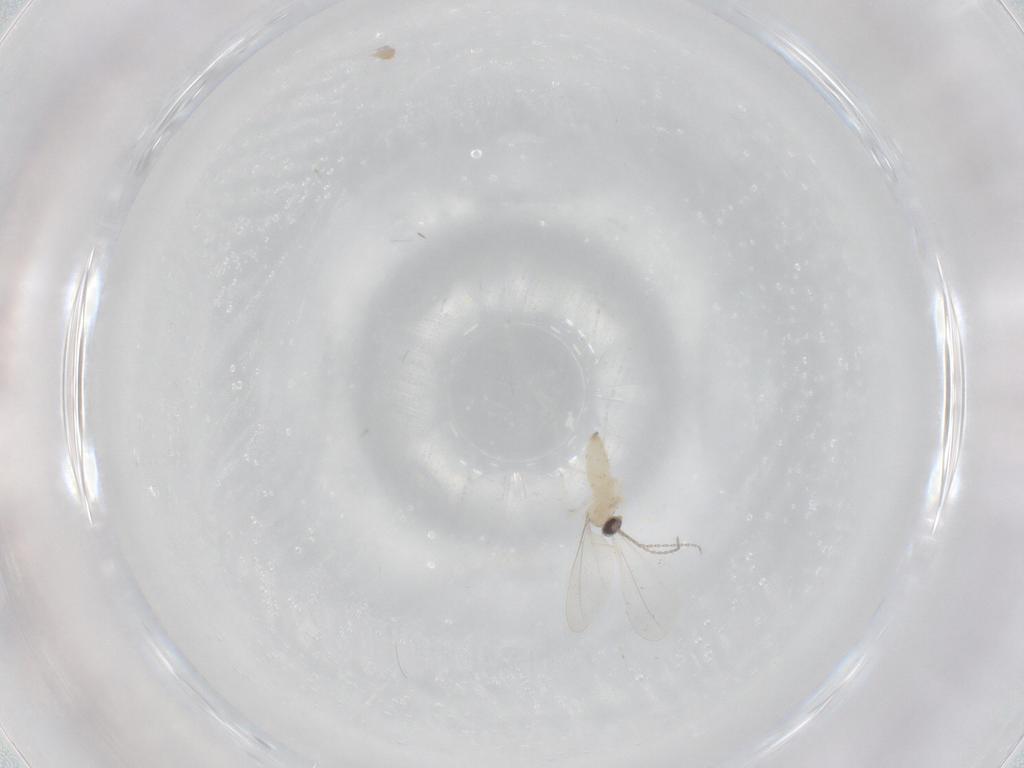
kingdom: Animalia
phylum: Arthropoda
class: Insecta
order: Diptera
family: Cecidomyiidae
